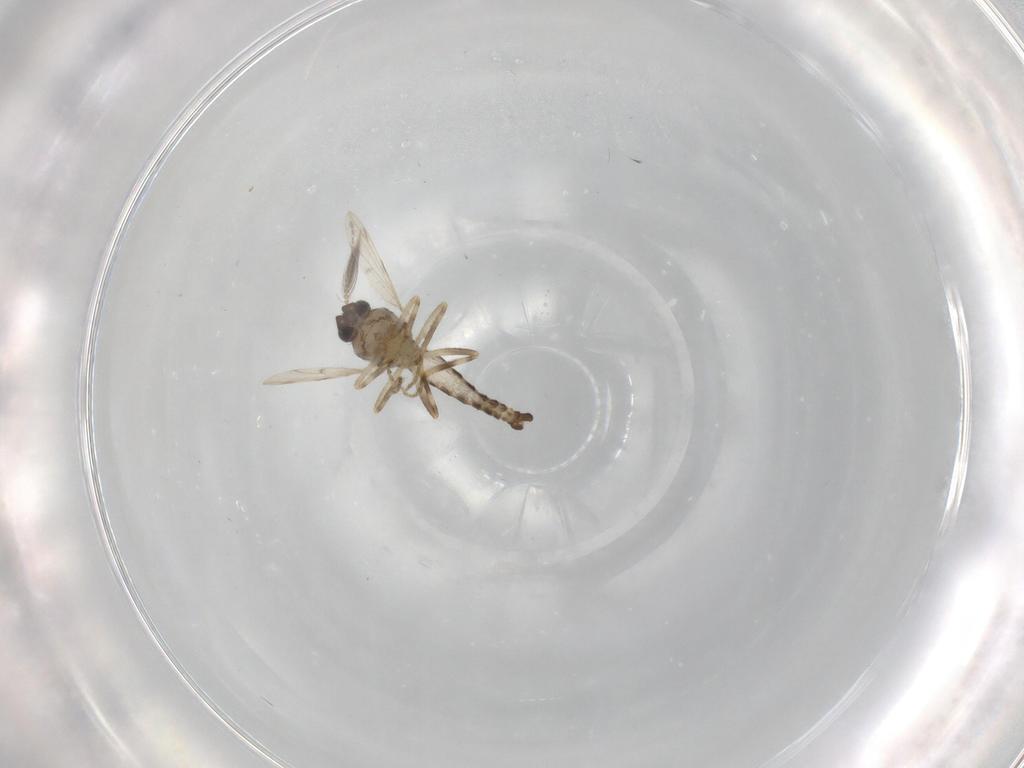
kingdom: Animalia
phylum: Arthropoda
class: Insecta
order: Diptera
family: Ceratopogonidae
